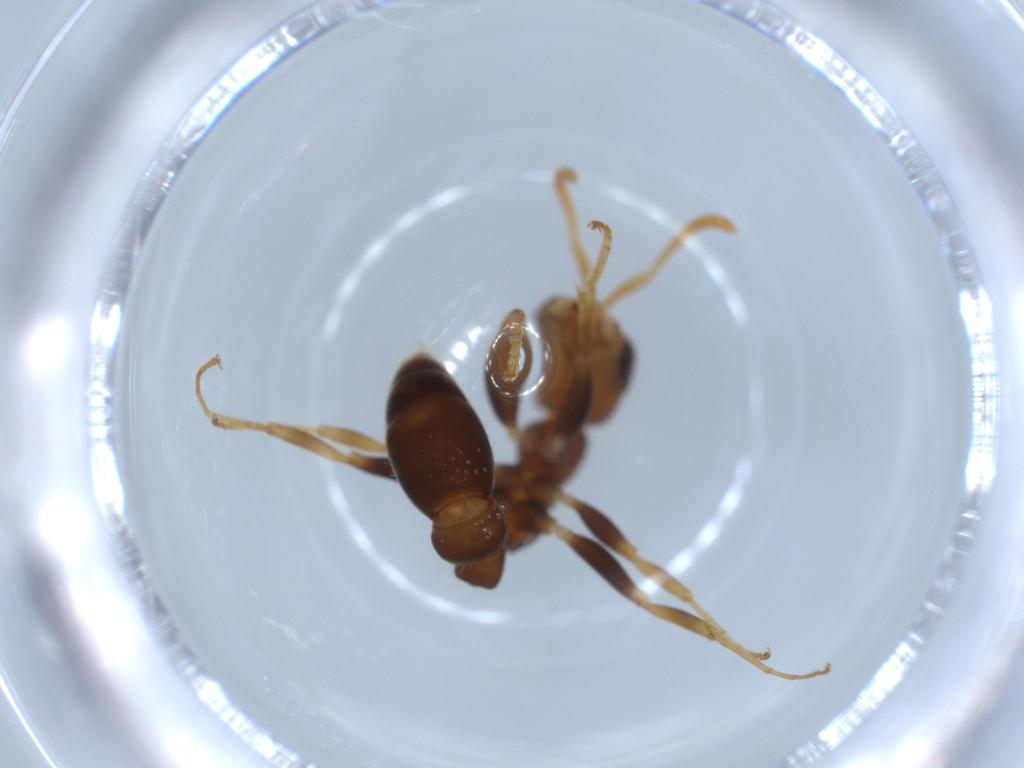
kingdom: Animalia
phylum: Arthropoda
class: Insecta
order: Hymenoptera
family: Formicidae
